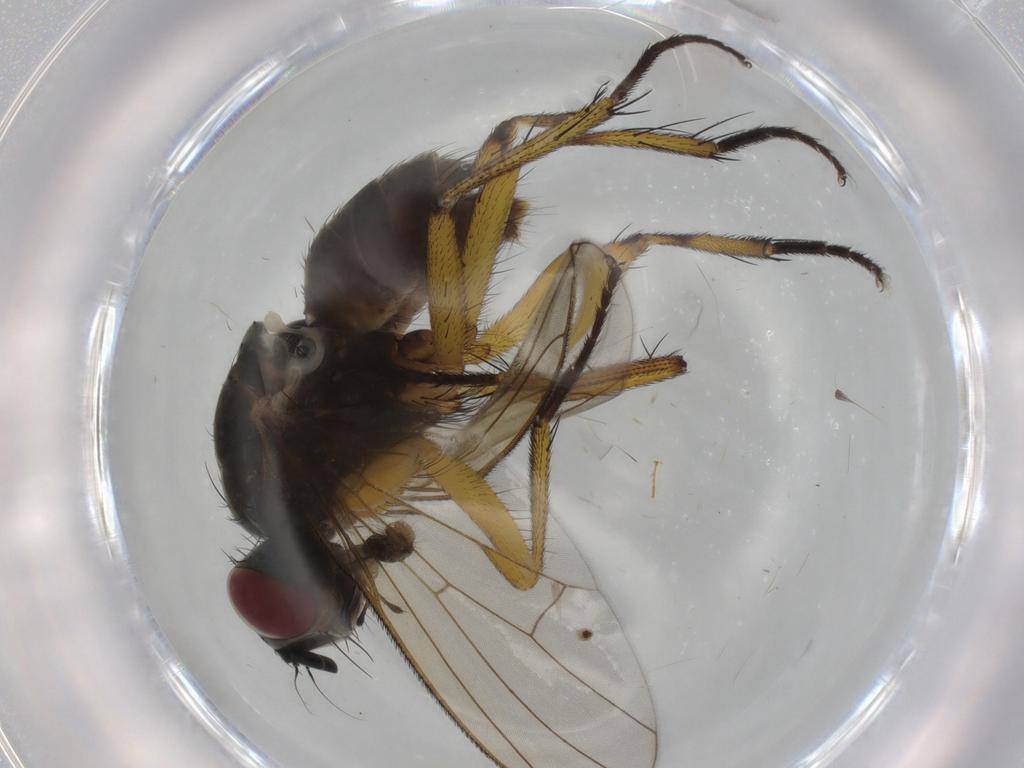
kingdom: Animalia
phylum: Arthropoda
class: Insecta
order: Diptera
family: Muscidae
